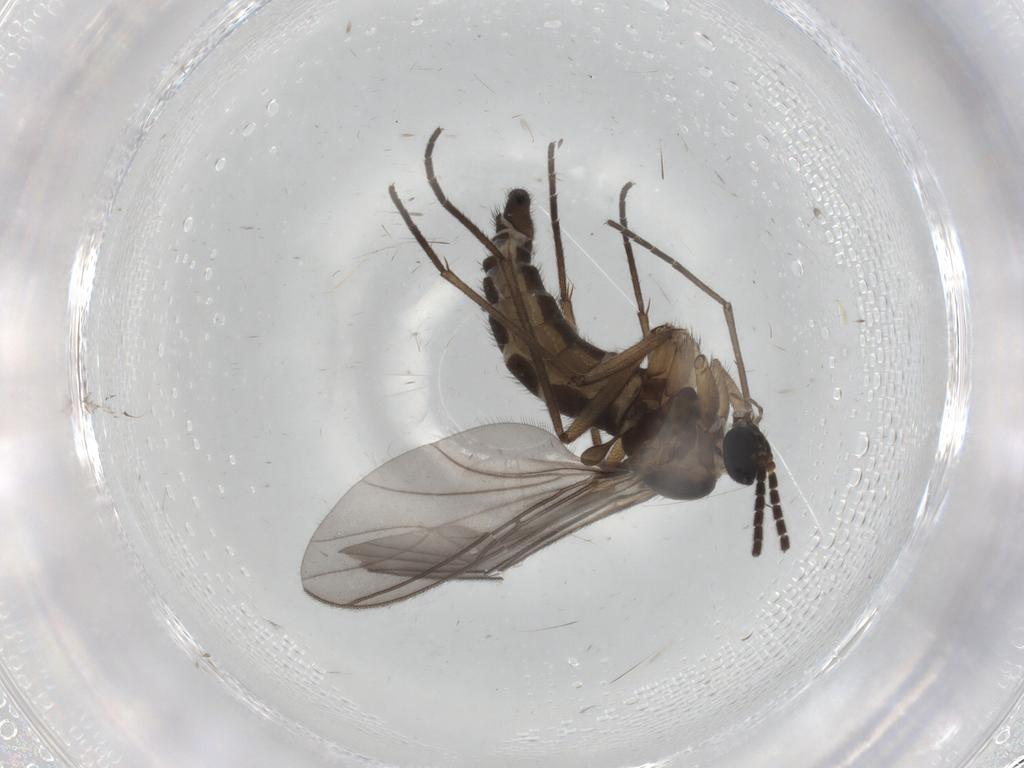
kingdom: Animalia
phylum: Arthropoda
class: Insecta
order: Diptera
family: Sciaridae
